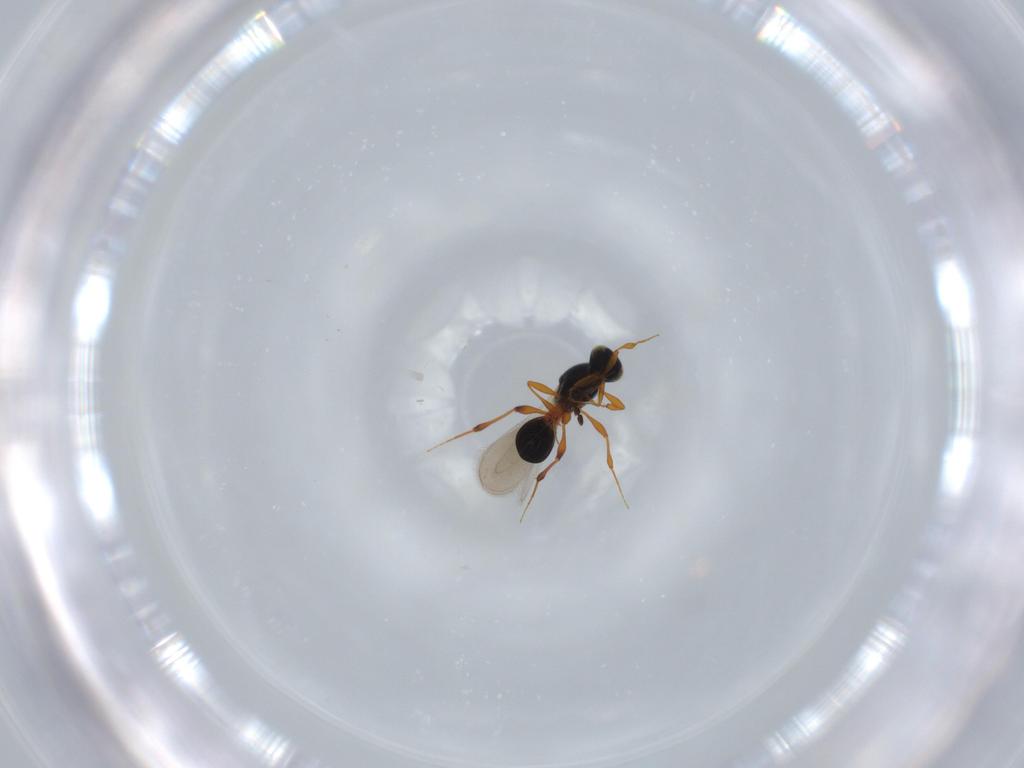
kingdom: Animalia
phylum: Arthropoda
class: Insecta
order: Hymenoptera
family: Platygastridae
